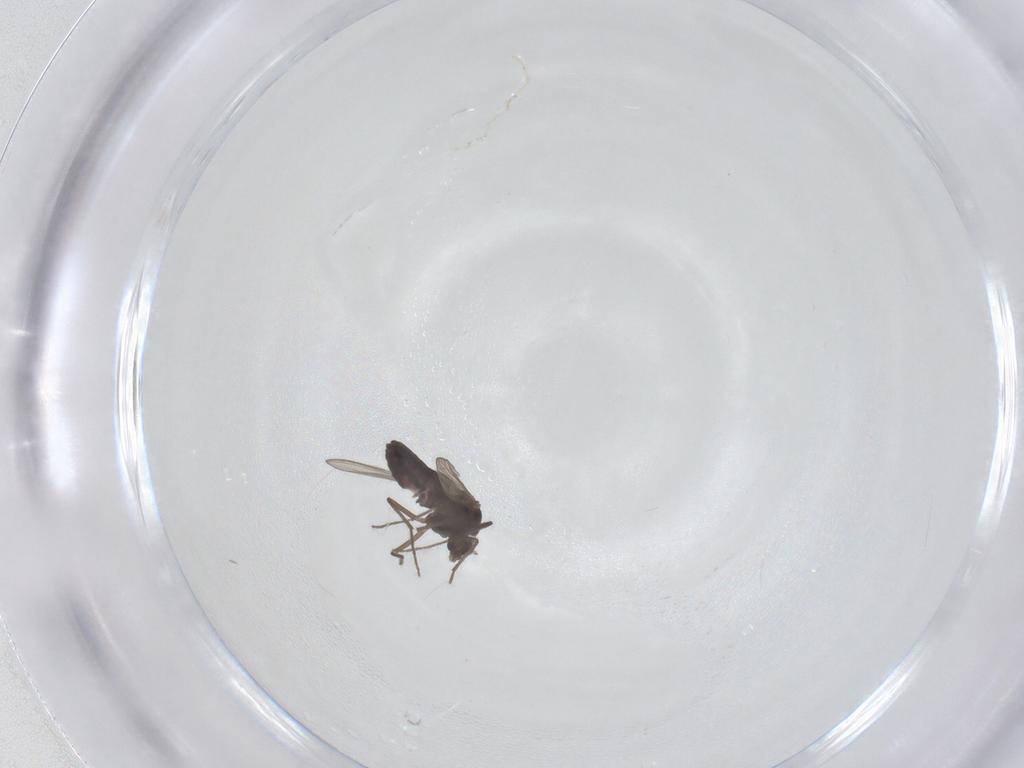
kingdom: Animalia
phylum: Arthropoda
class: Insecta
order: Diptera
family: Chironomidae
